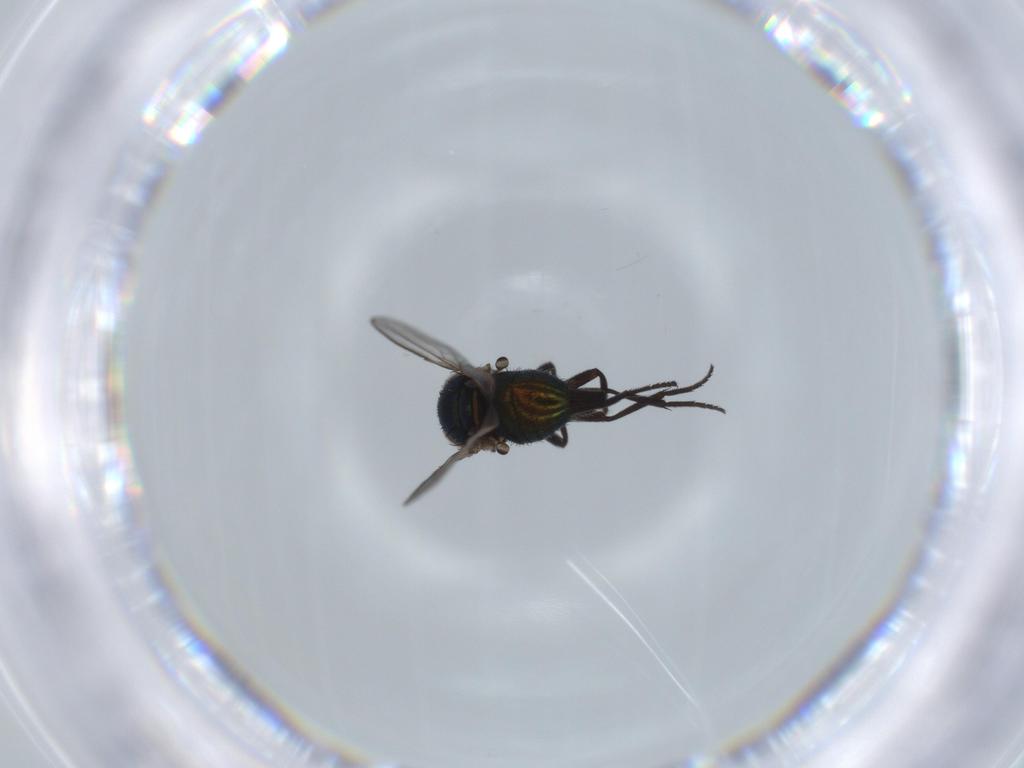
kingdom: Animalia
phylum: Arthropoda
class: Insecta
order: Diptera
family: Agromyzidae
